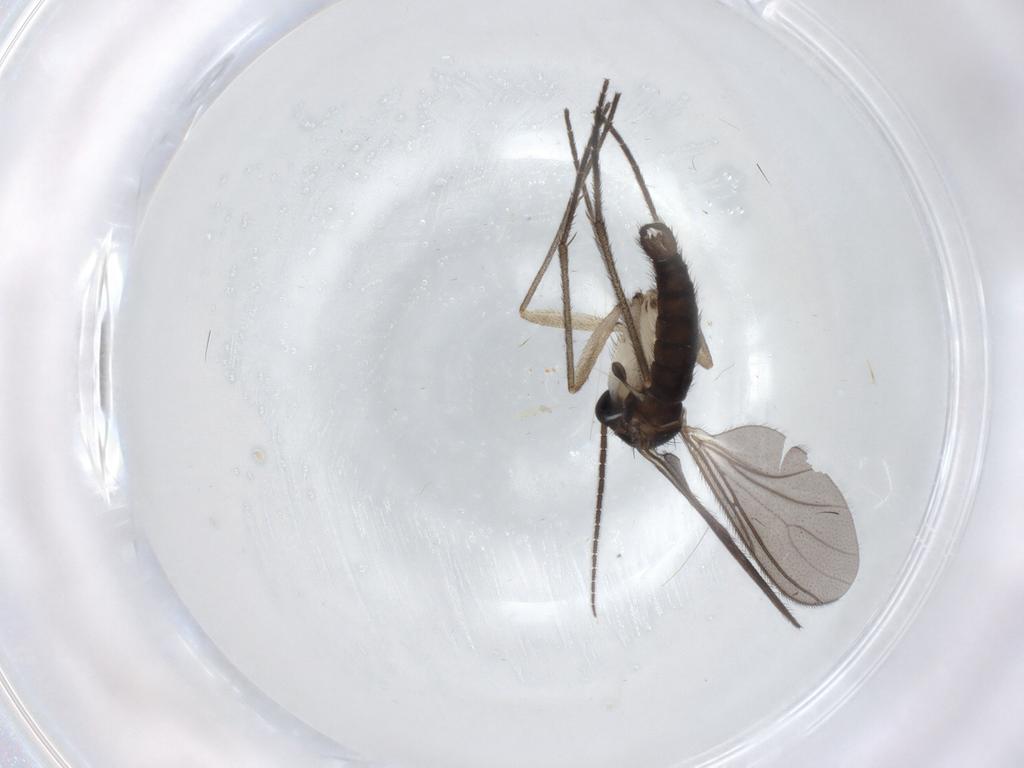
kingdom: Animalia
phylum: Arthropoda
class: Insecta
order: Diptera
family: Sciaridae
